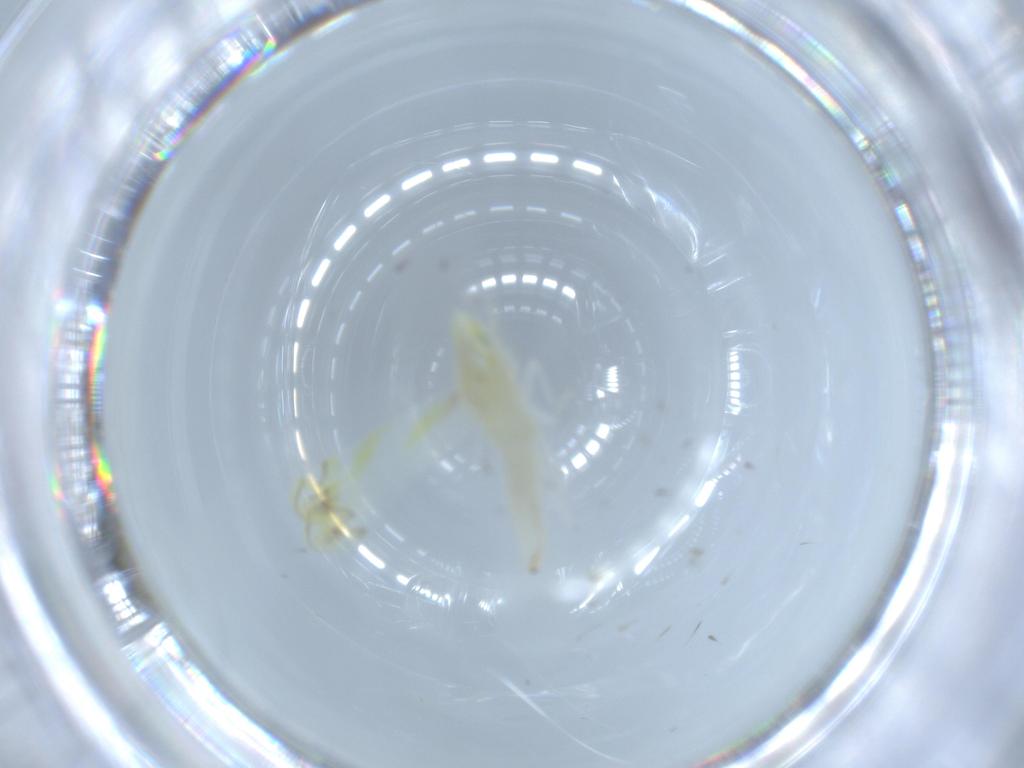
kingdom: Animalia
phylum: Arthropoda
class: Insecta
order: Hemiptera
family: Cicadellidae
